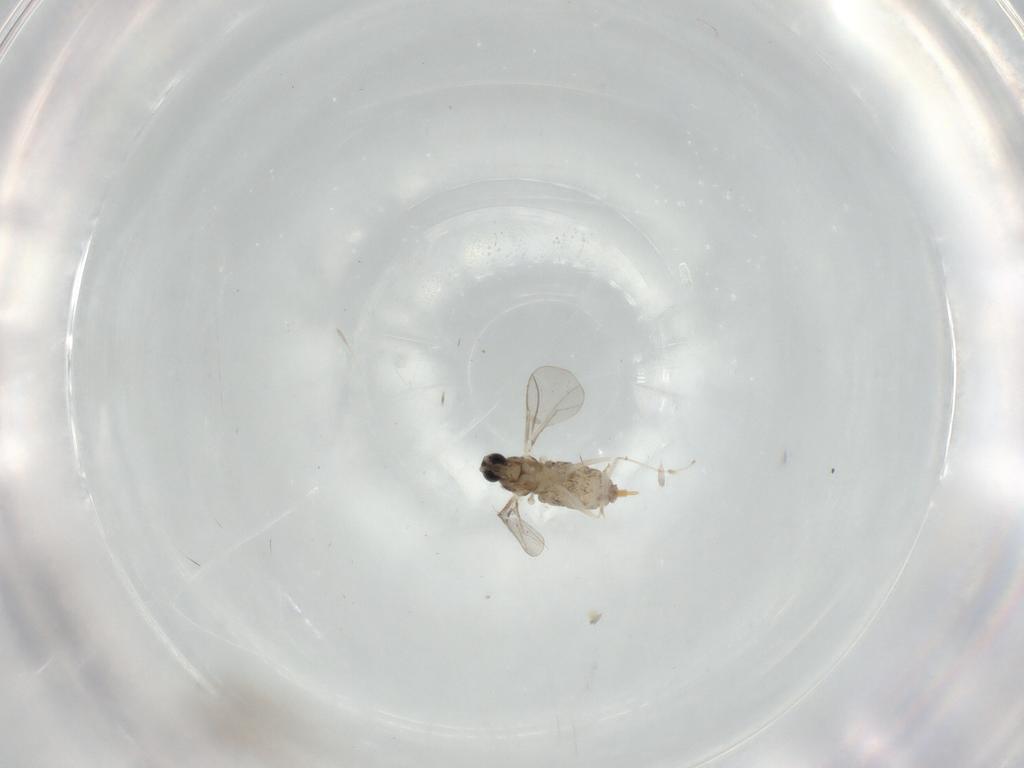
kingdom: Animalia
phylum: Arthropoda
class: Insecta
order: Diptera
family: Cecidomyiidae
